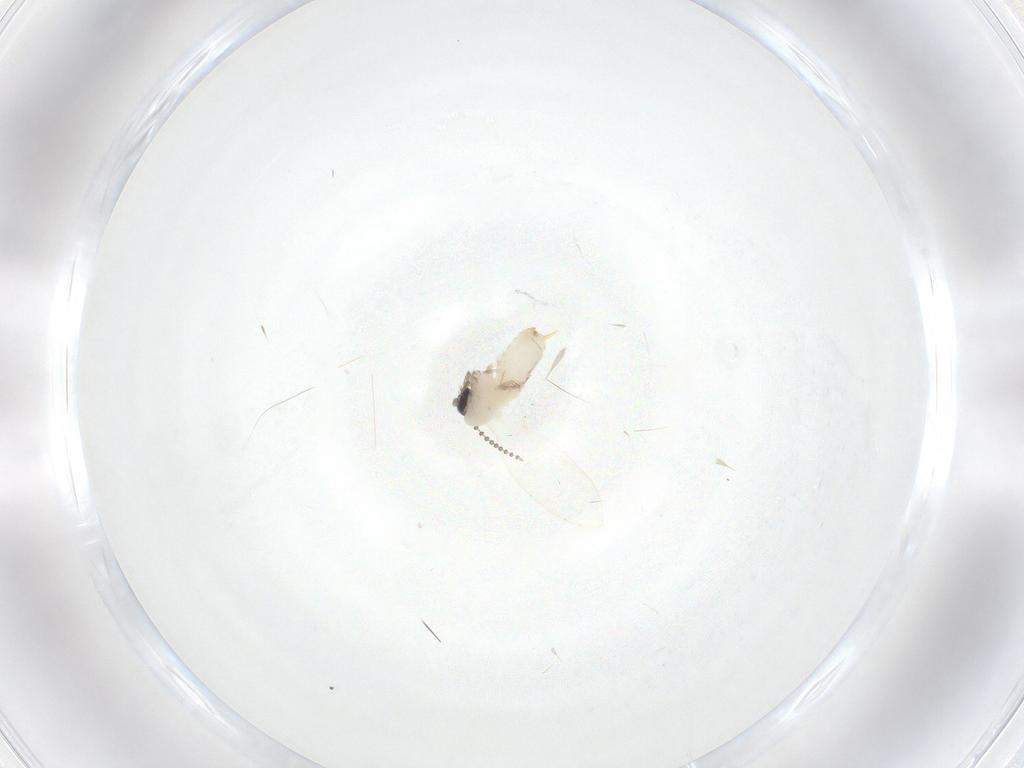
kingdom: Animalia
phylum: Arthropoda
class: Insecta
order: Diptera
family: Psychodidae
